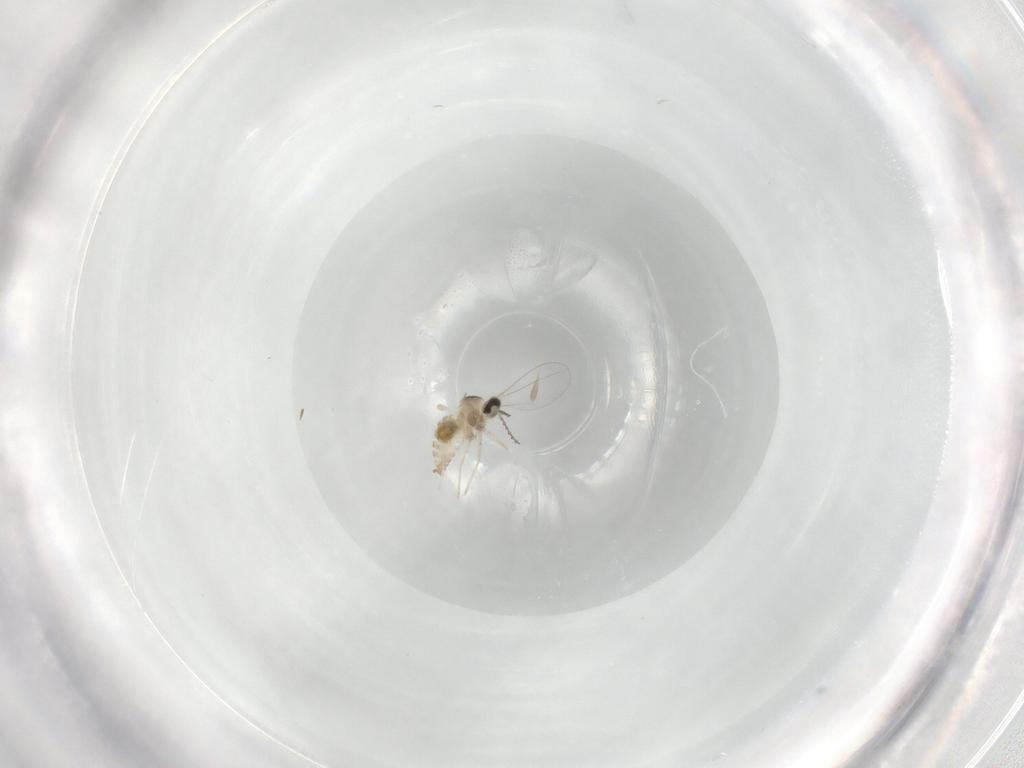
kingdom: Animalia
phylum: Arthropoda
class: Insecta
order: Diptera
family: Cecidomyiidae
